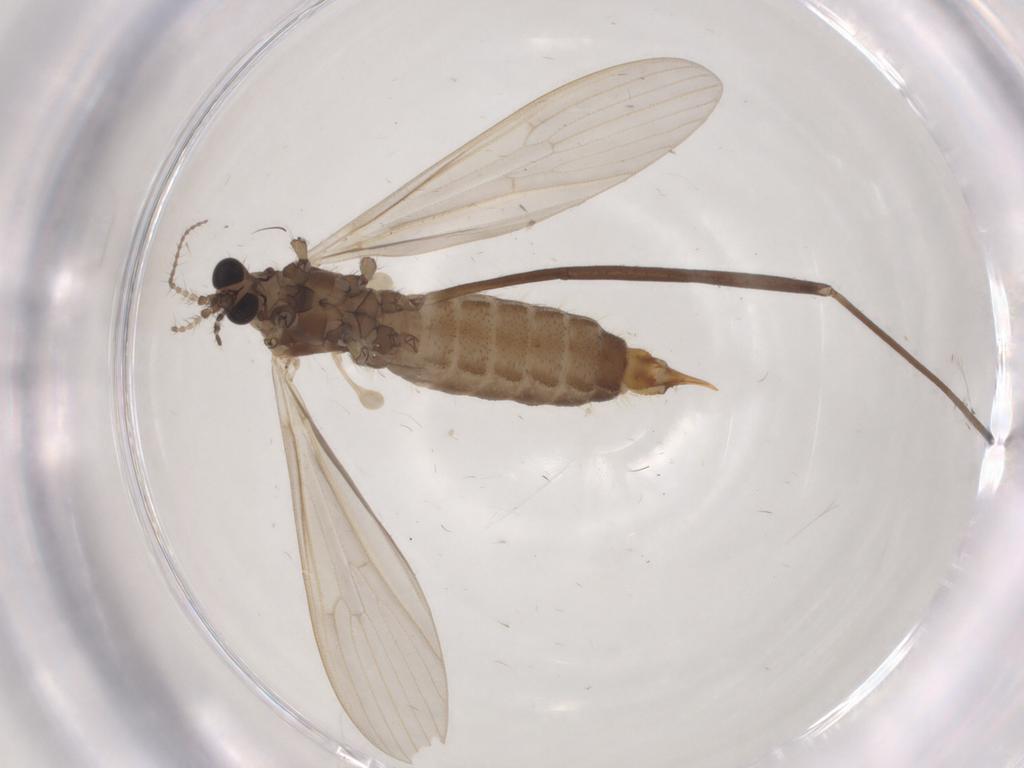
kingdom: Animalia
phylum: Arthropoda
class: Insecta
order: Diptera
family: Limoniidae
